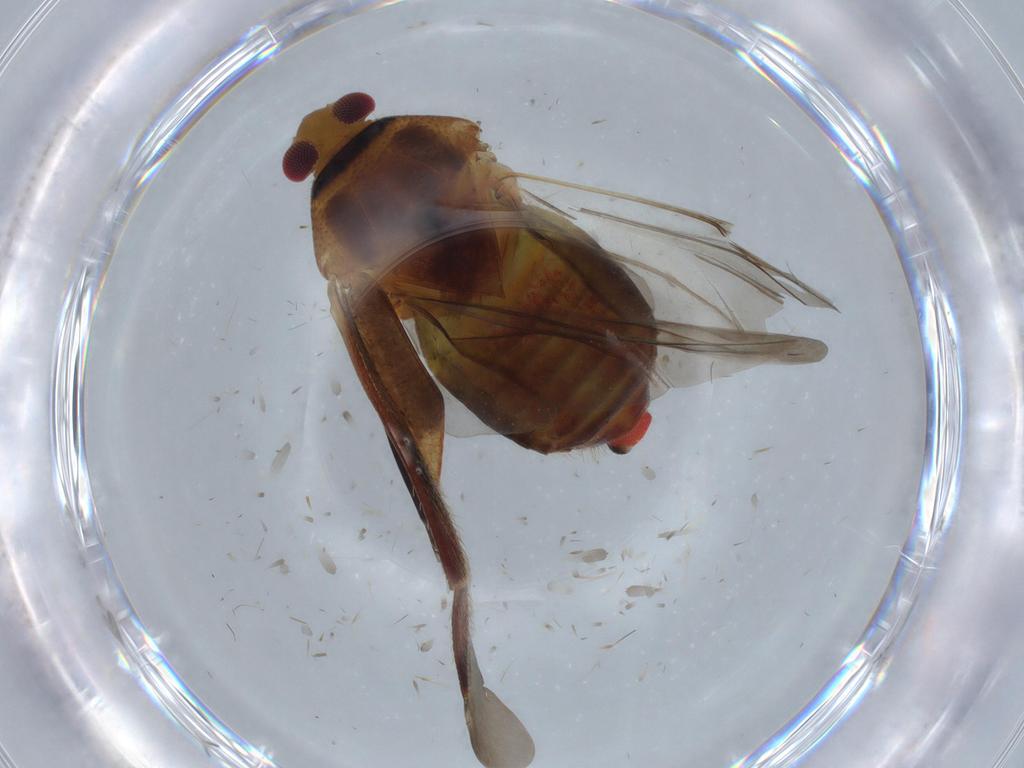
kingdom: Animalia
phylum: Arthropoda
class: Insecta
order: Hemiptera
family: Miridae
